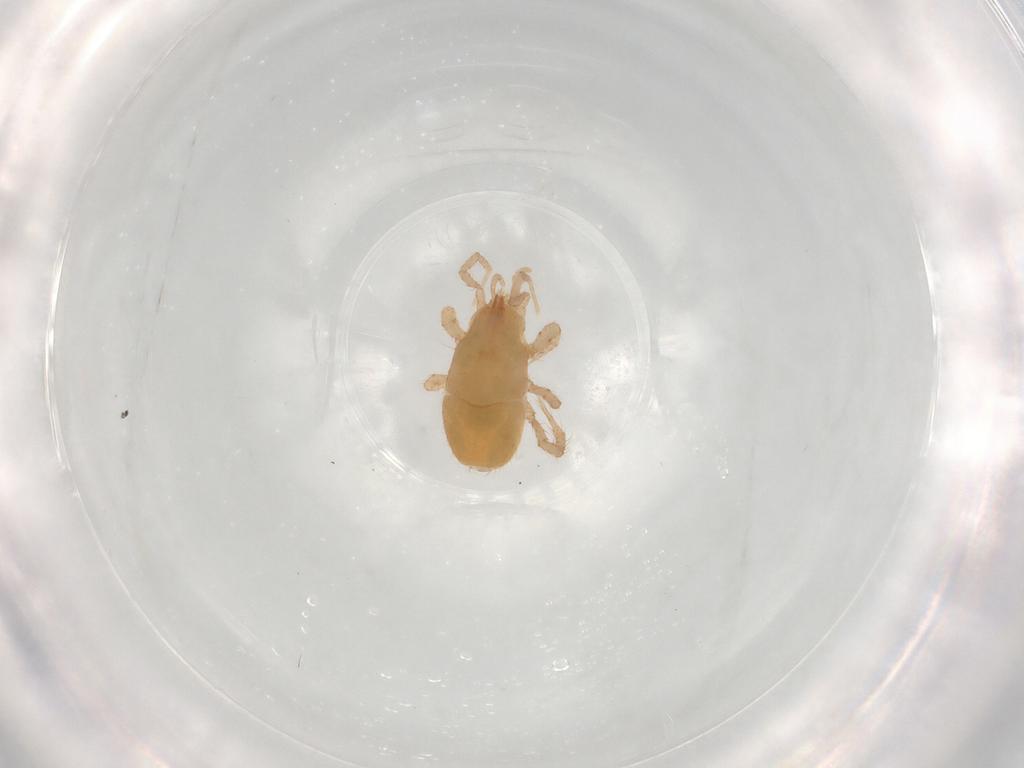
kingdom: Animalia
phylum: Arthropoda
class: Arachnida
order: Trombidiformes
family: Labidostommidae
